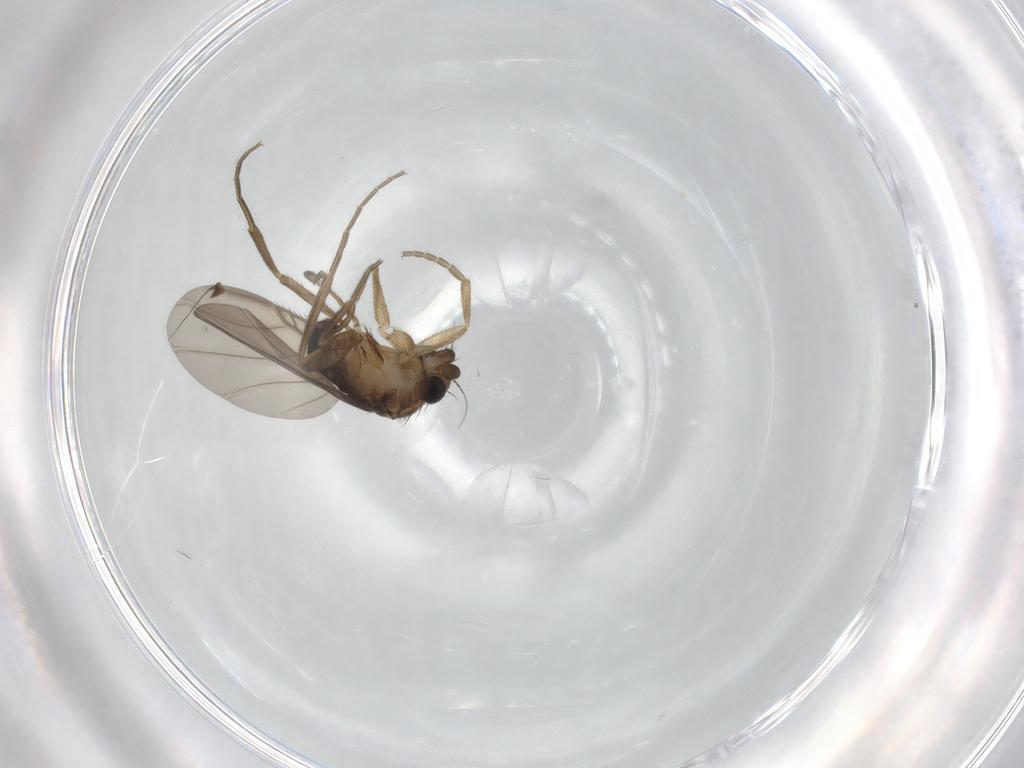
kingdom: Animalia
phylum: Arthropoda
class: Insecta
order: Diptera
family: Phoridae
